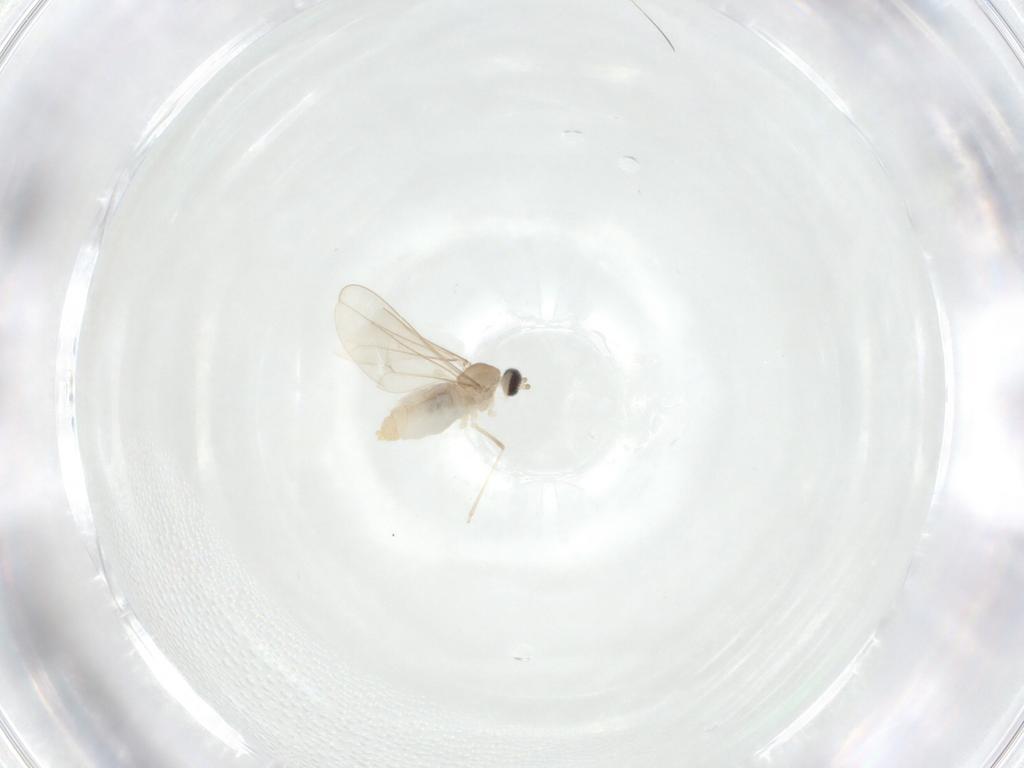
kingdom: Animalia
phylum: Arthropoda
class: Insecta
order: Diptera
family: Cecidomyiidae
